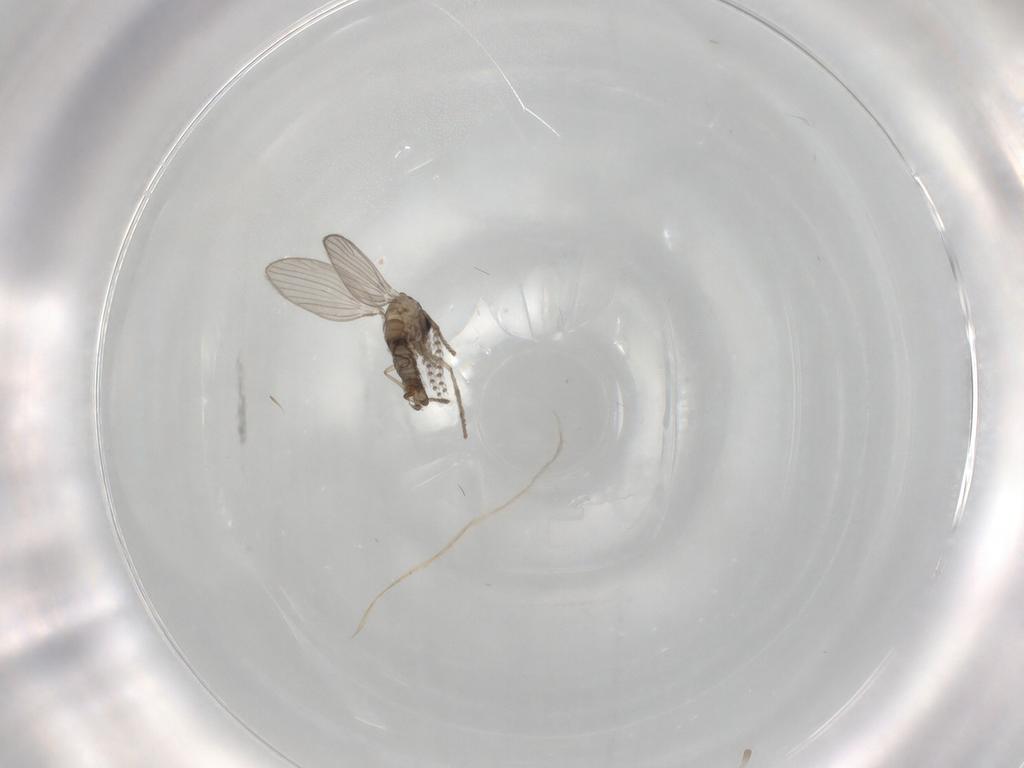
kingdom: Animalia
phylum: Arthropoda
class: Insecta
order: Diptera
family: Psychodidae
